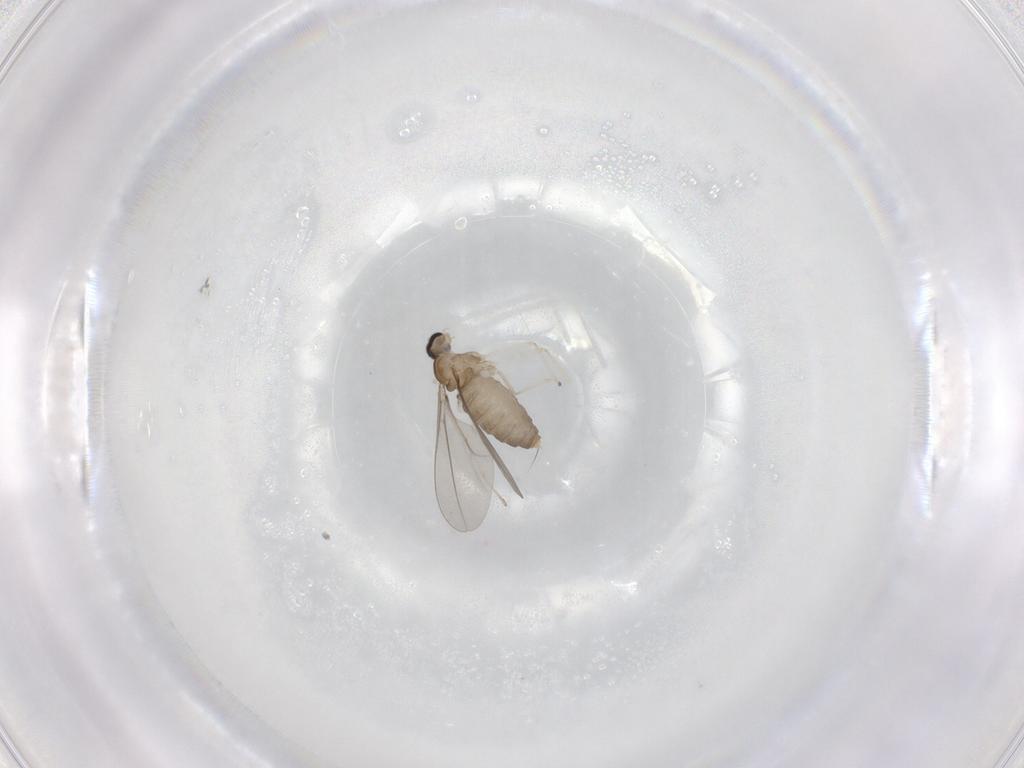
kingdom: Animalia
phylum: Arthropoda
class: Insecta
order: Diptera
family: Cecidomyiidae
